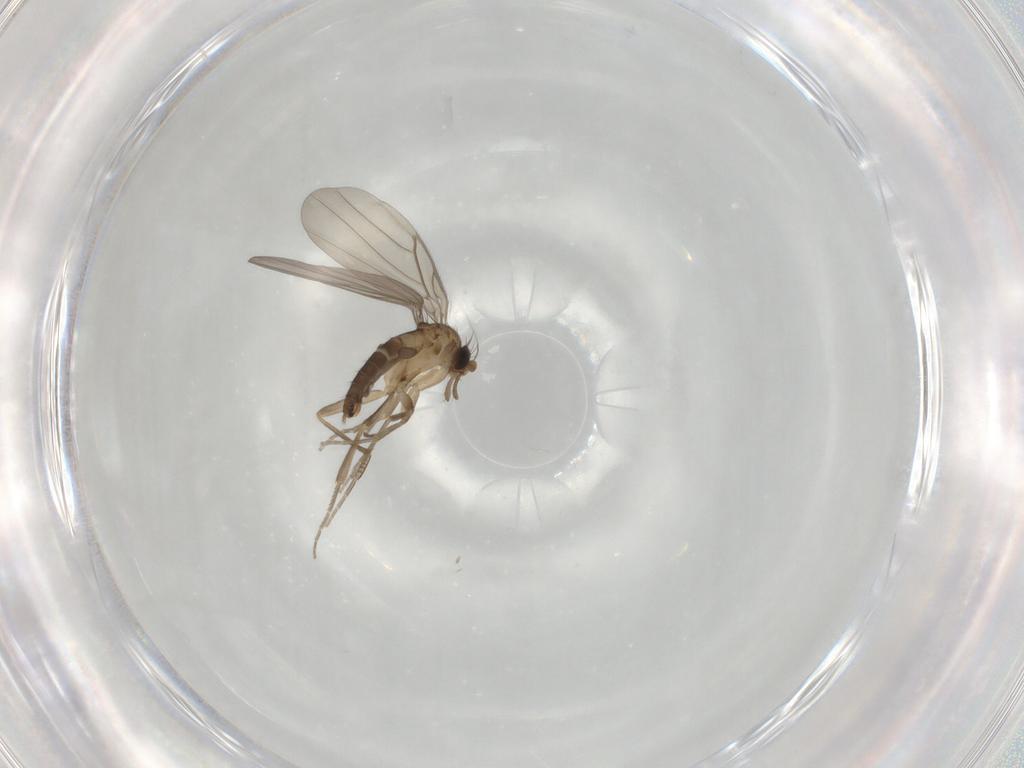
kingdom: Animalia
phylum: Arthropoda
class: Insecta
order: Diptera
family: Phoridae
